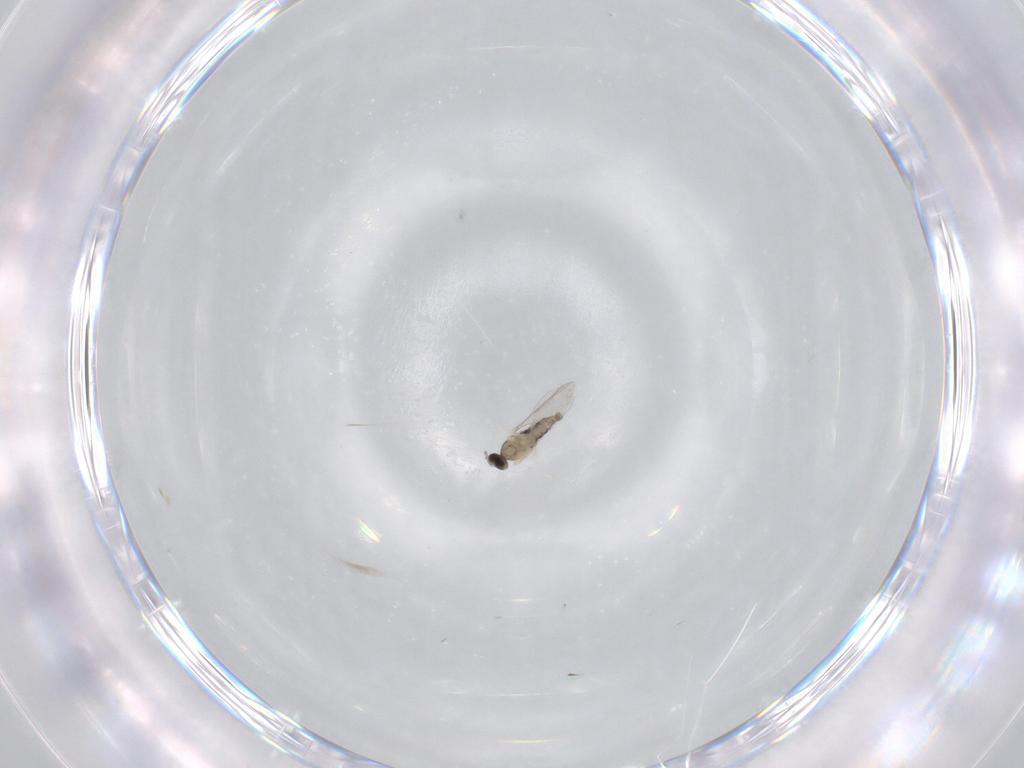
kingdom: Animalia
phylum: Arthropoda
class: Insecta
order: Diptera
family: Cecidomyiidae
